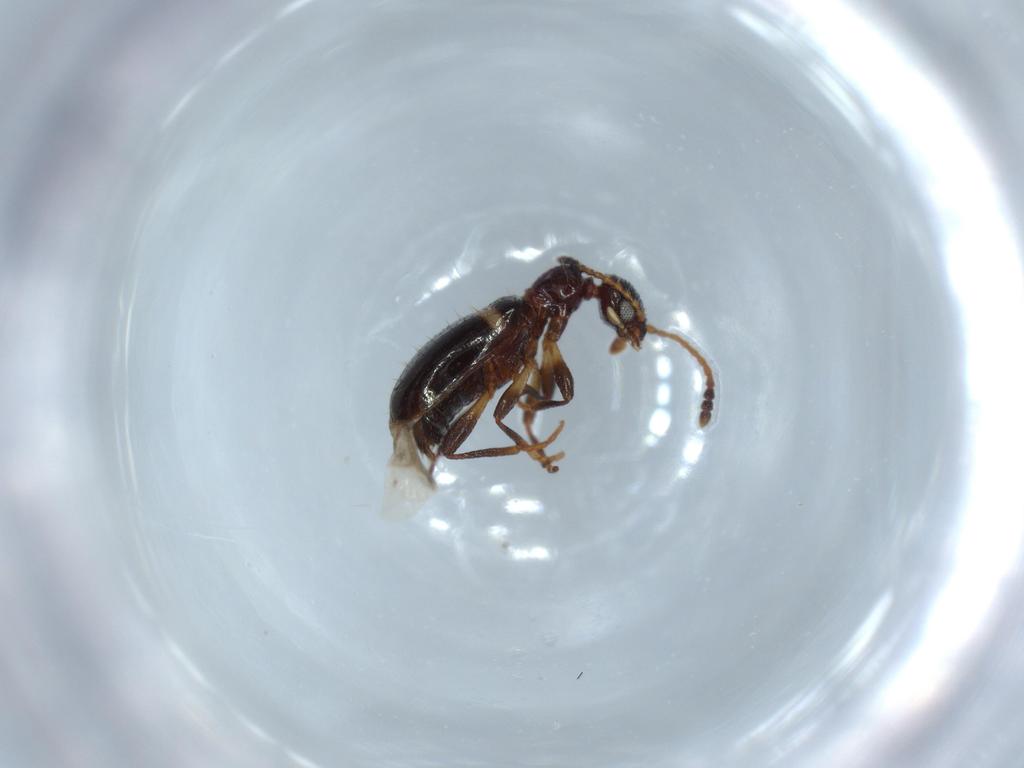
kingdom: Animalia
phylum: Arthropoda
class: Insecta
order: Coleoptera
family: Anthicidae
